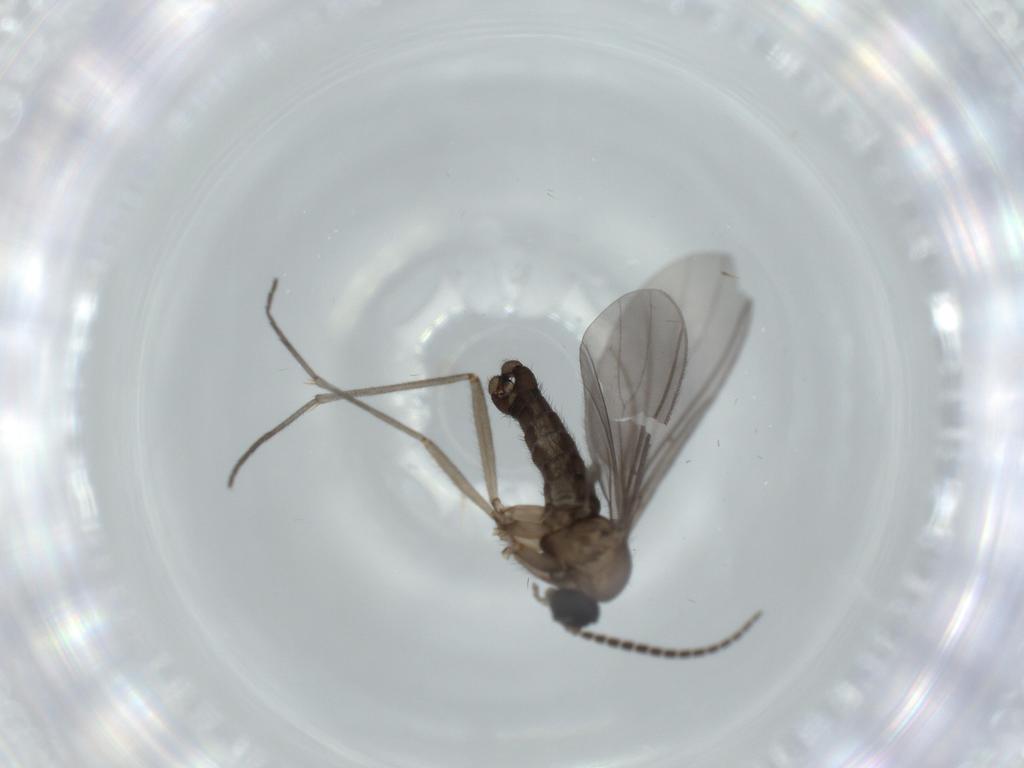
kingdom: Animalia
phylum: Arthropoda
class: Insecta
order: Diptera
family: Sciaridae
